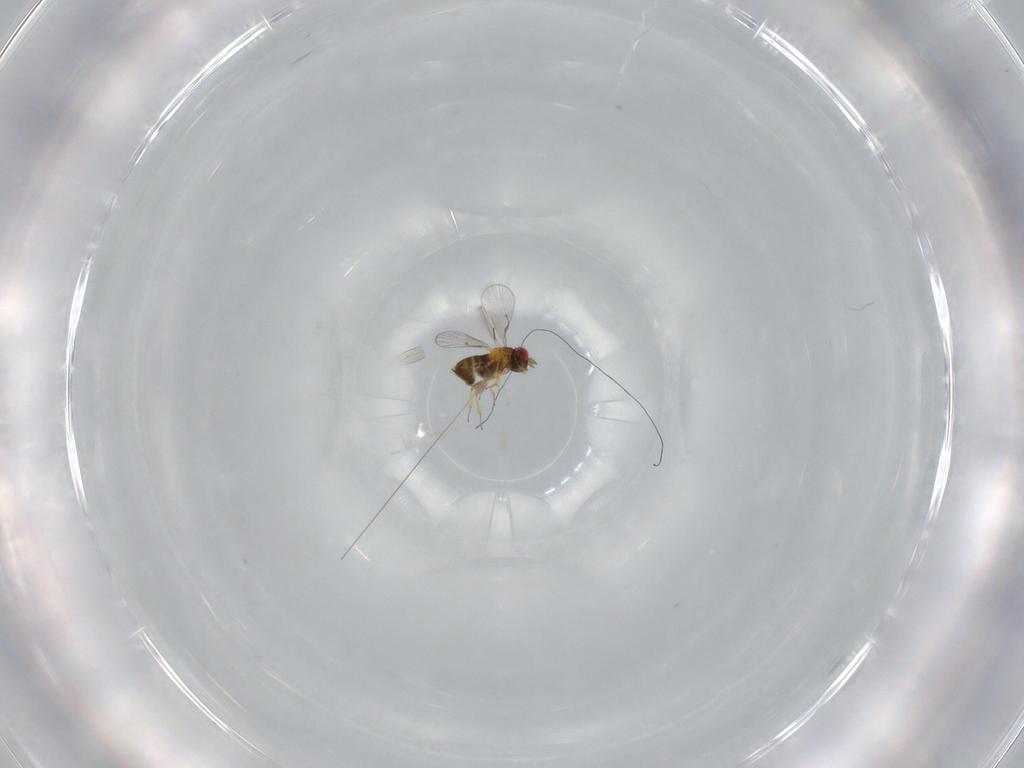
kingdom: Animalia
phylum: Arthropoda
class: Insecta
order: Hymenoptera
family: Trichogrammatidae
